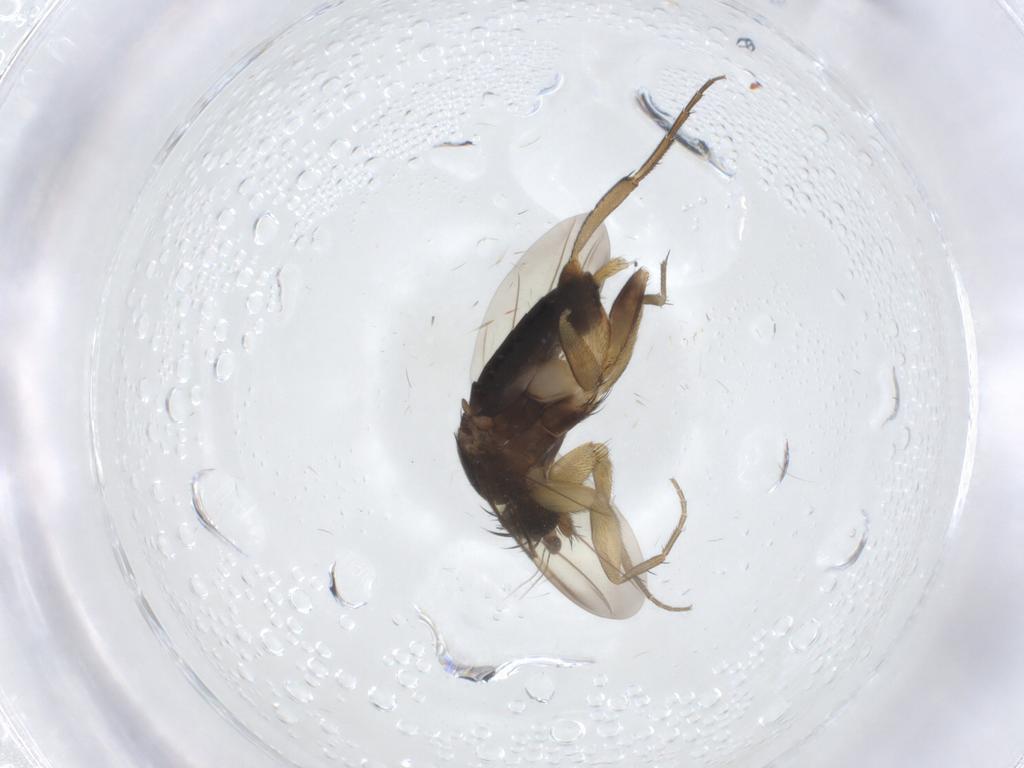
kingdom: Animalia
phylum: Arthropoda
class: Insecta
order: Diptera
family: Phoridae
